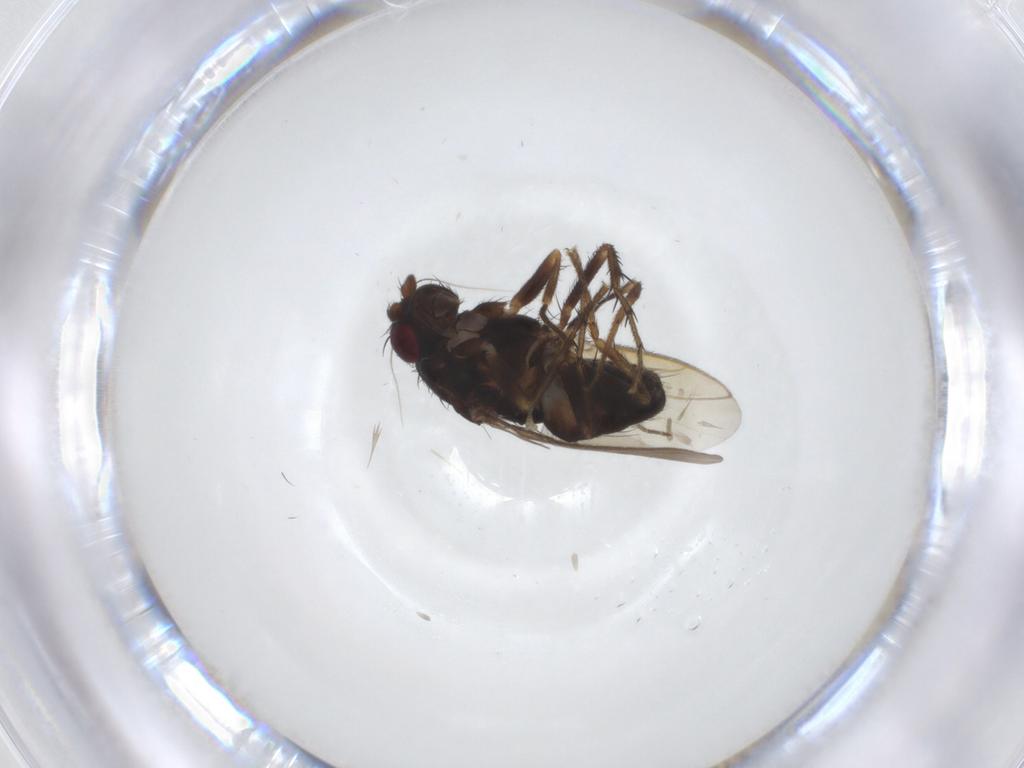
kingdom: Animalia
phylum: Arthropoda
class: Insecta
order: Diptera
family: Sphaeroceridae
